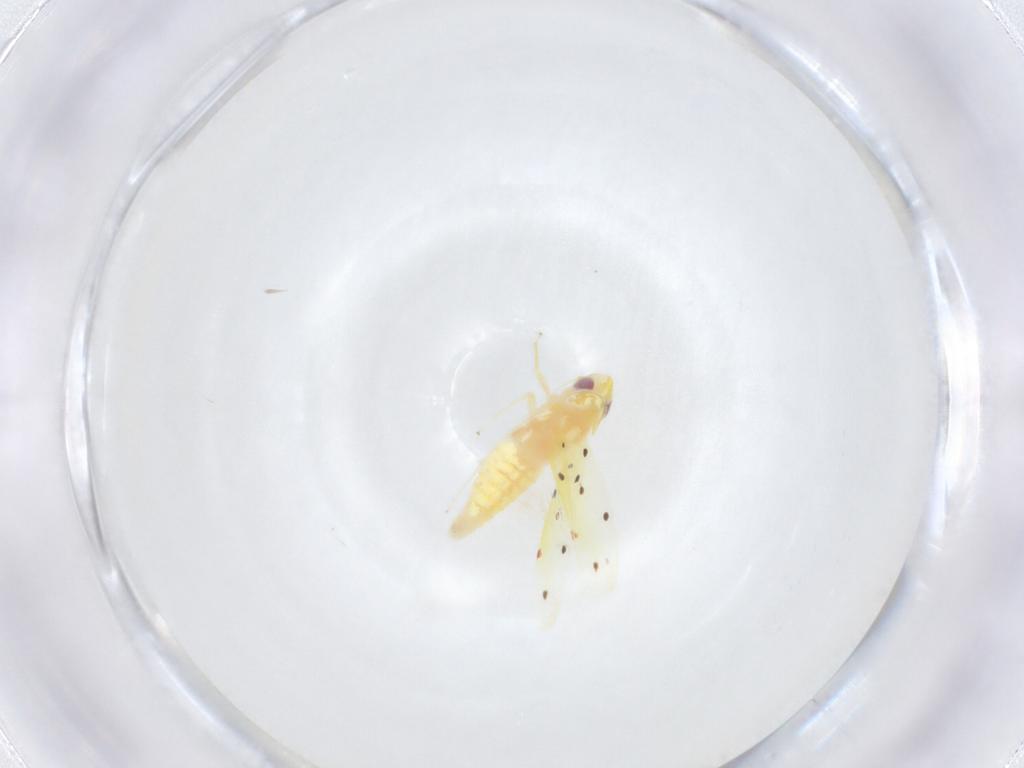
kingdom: Animalia
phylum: Arthropoda
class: Insecta
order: Hemiptera
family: Cicadellidae
